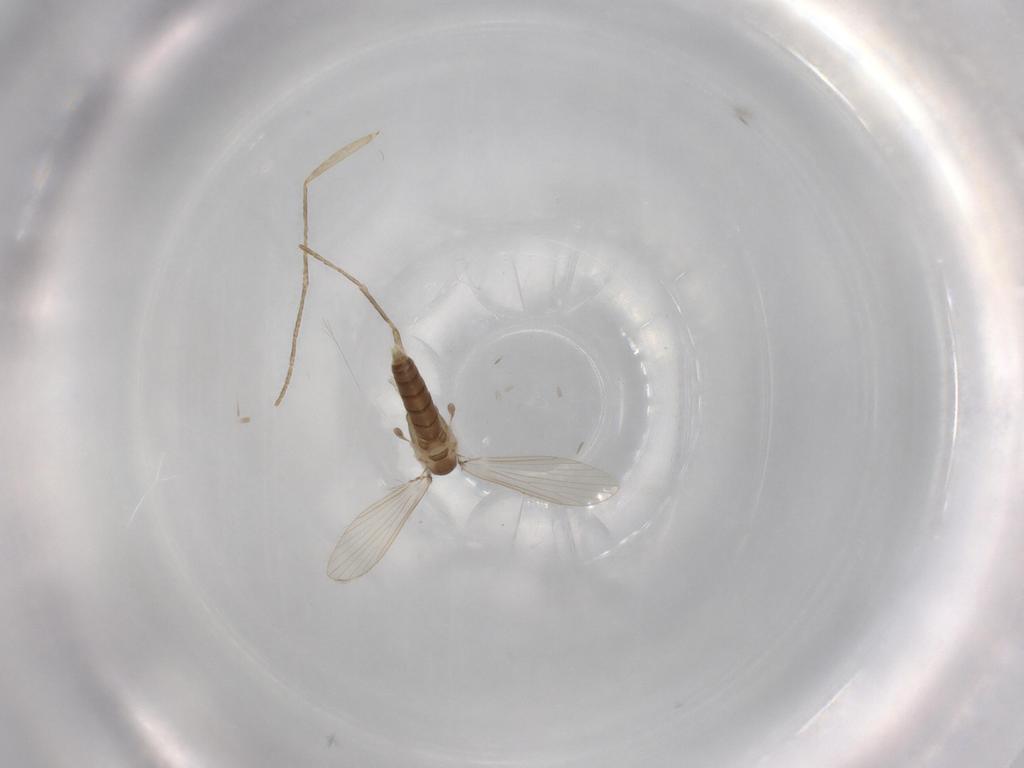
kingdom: Animalia
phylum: Arthropoda
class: Insecta
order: Diptera
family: Psychodidae
